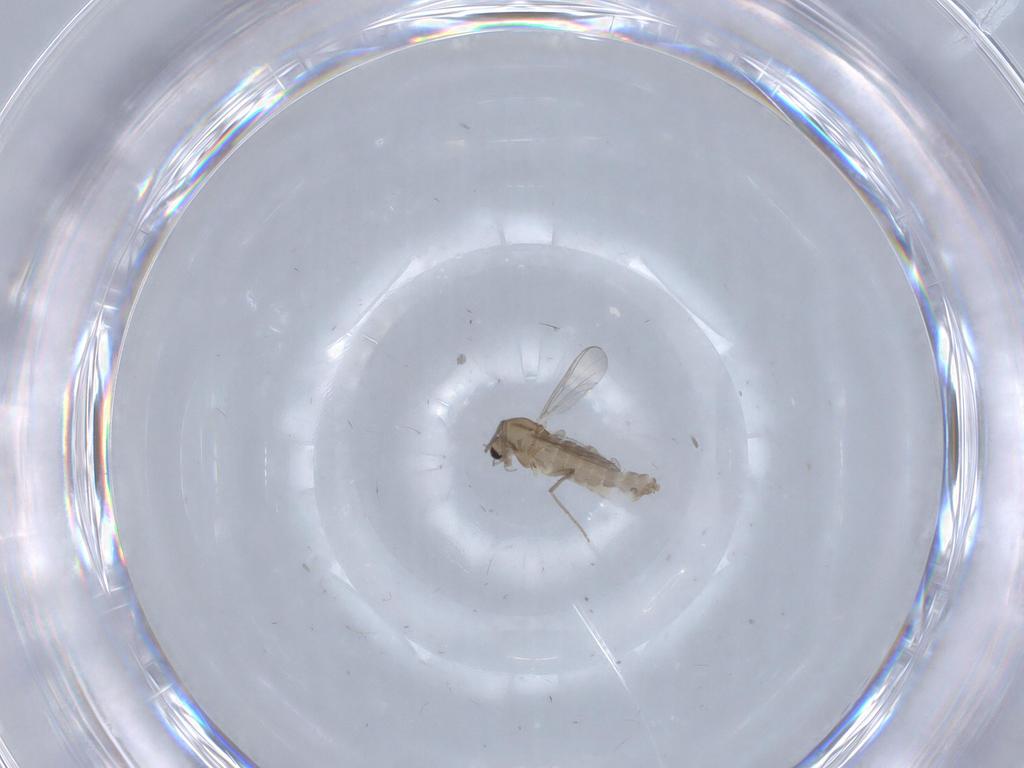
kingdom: Animalia
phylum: Arthropoda
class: Insecta
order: Diptera
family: Chironomidae
